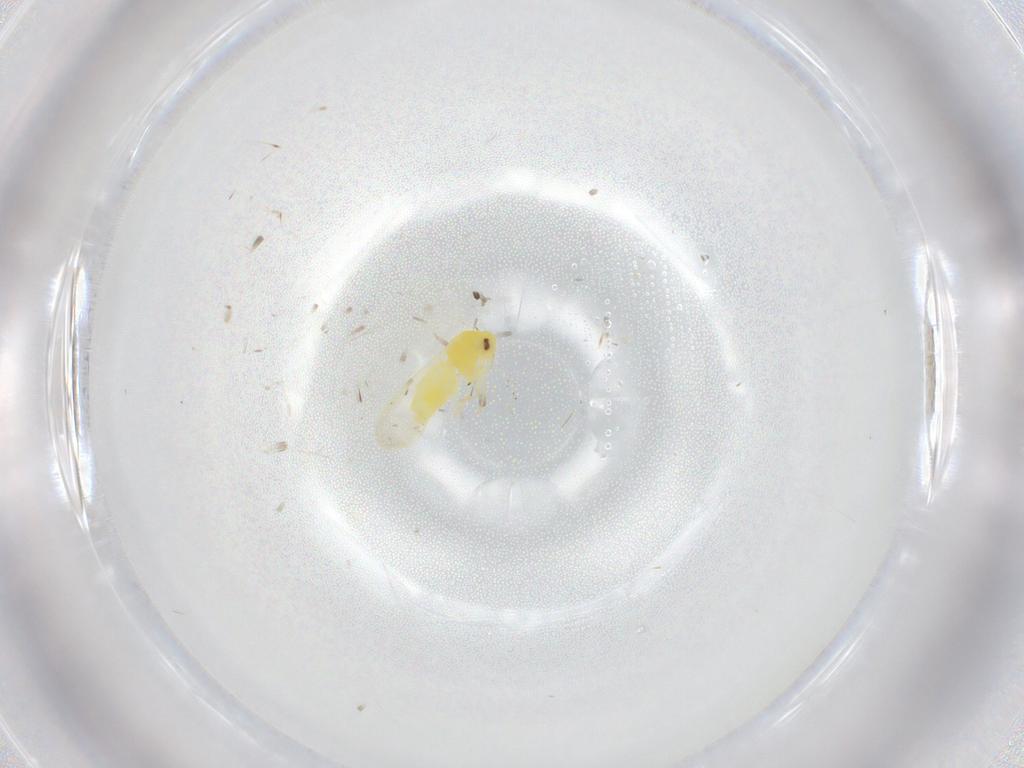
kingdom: Animalia
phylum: Arthropoda
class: Insecta
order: Hemiptera
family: Aleyrodidae
